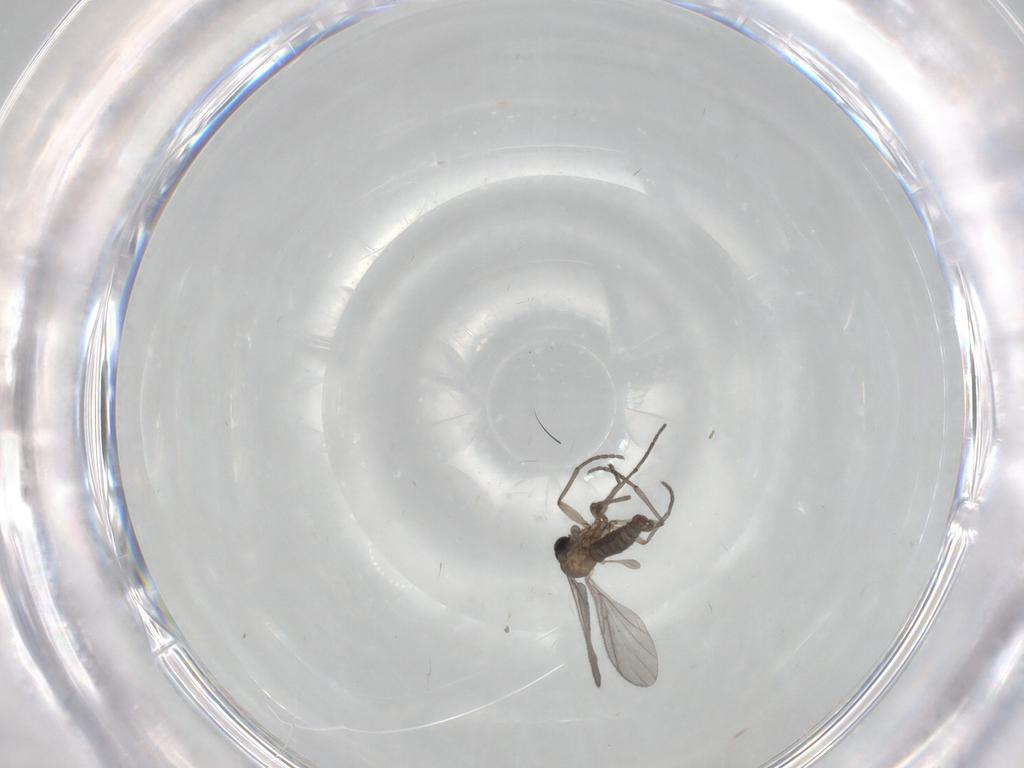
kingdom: Animalia
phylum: Arthropoda
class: Insecta
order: Diptera
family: Sciaridae
